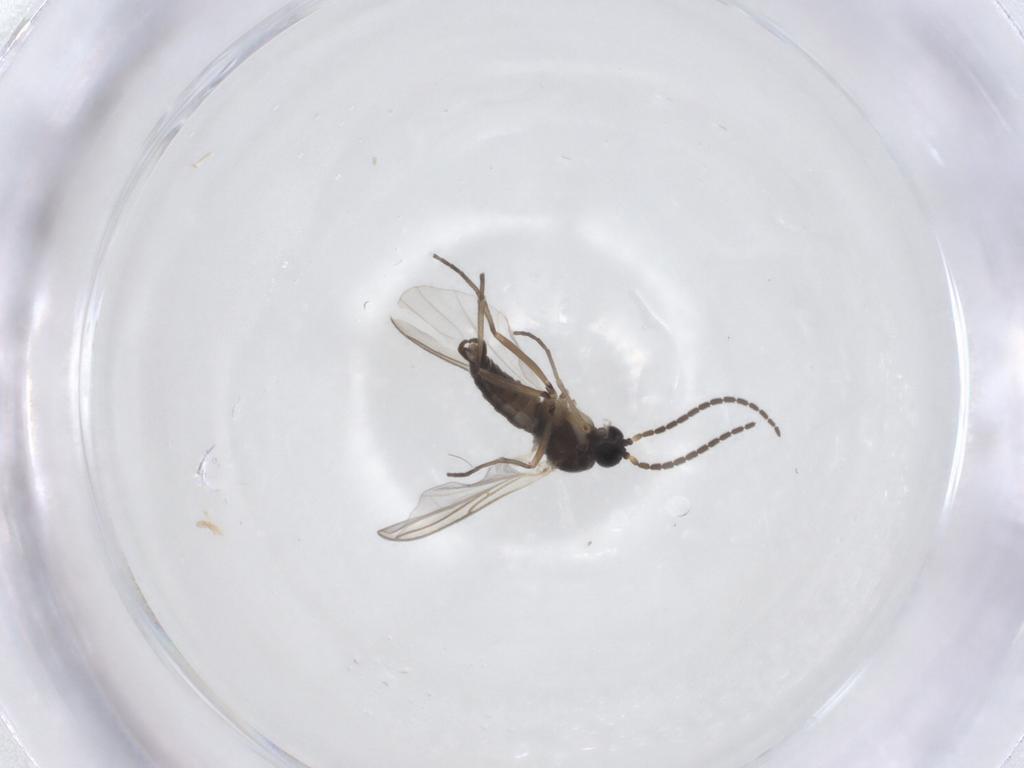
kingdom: Animalia
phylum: Arthropoda
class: Insecta
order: Diptera
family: Sciaridae
